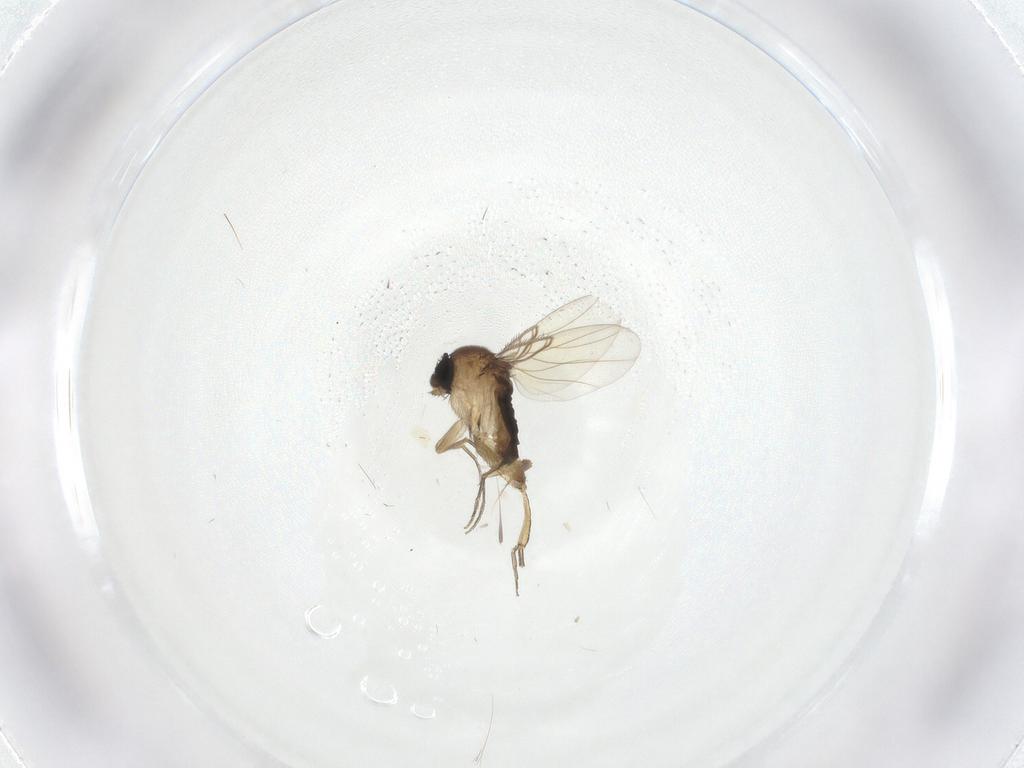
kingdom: Animalia
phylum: Arthropoda
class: Insecta
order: Diptera
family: Phoridae
